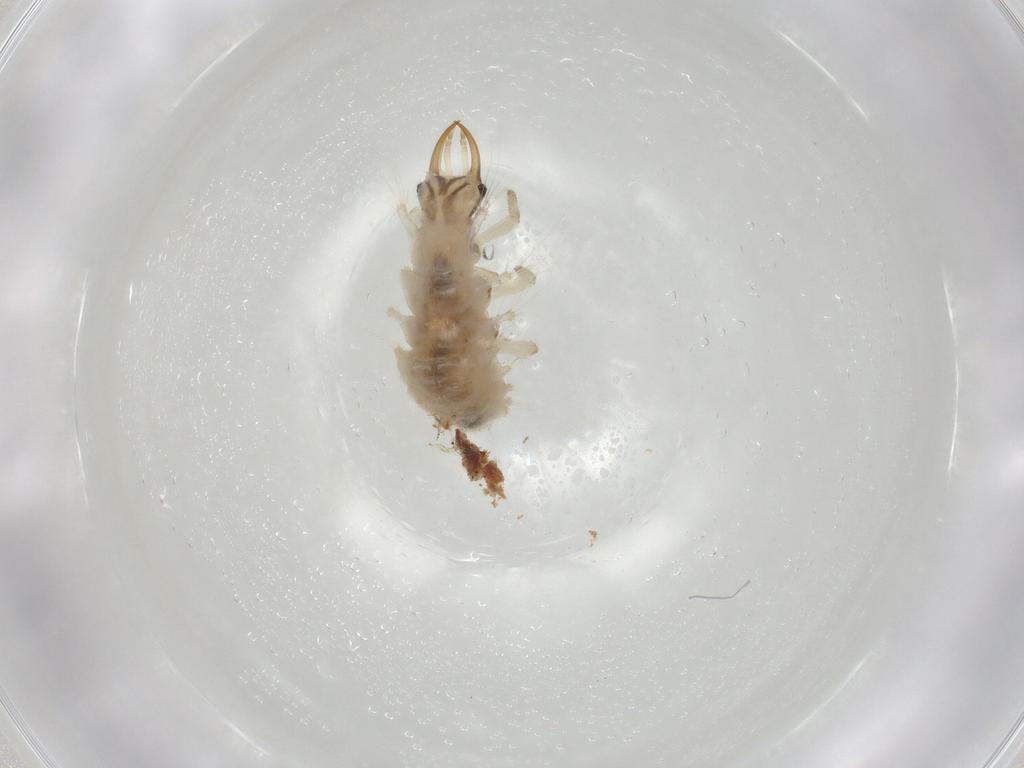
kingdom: Animalia
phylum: Arthropoda
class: Insecta
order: Neuroptera
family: Chrysopidae
